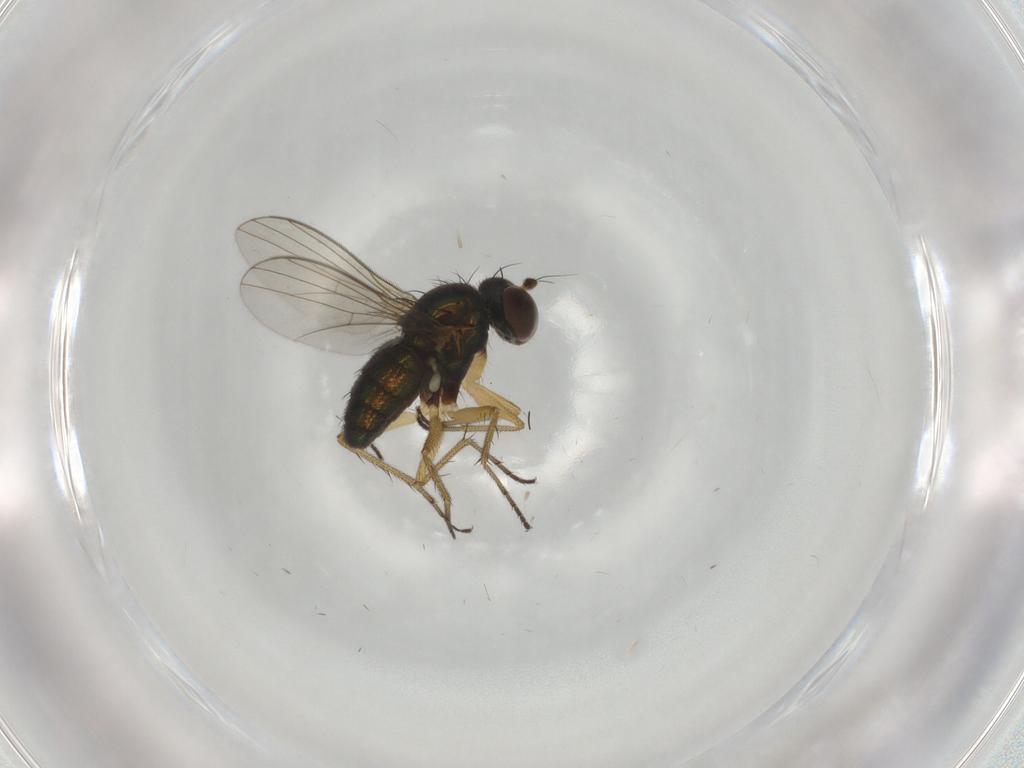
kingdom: Animalia
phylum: Arthropoda
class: Insecta
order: Diptera
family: Dolichopodidae
